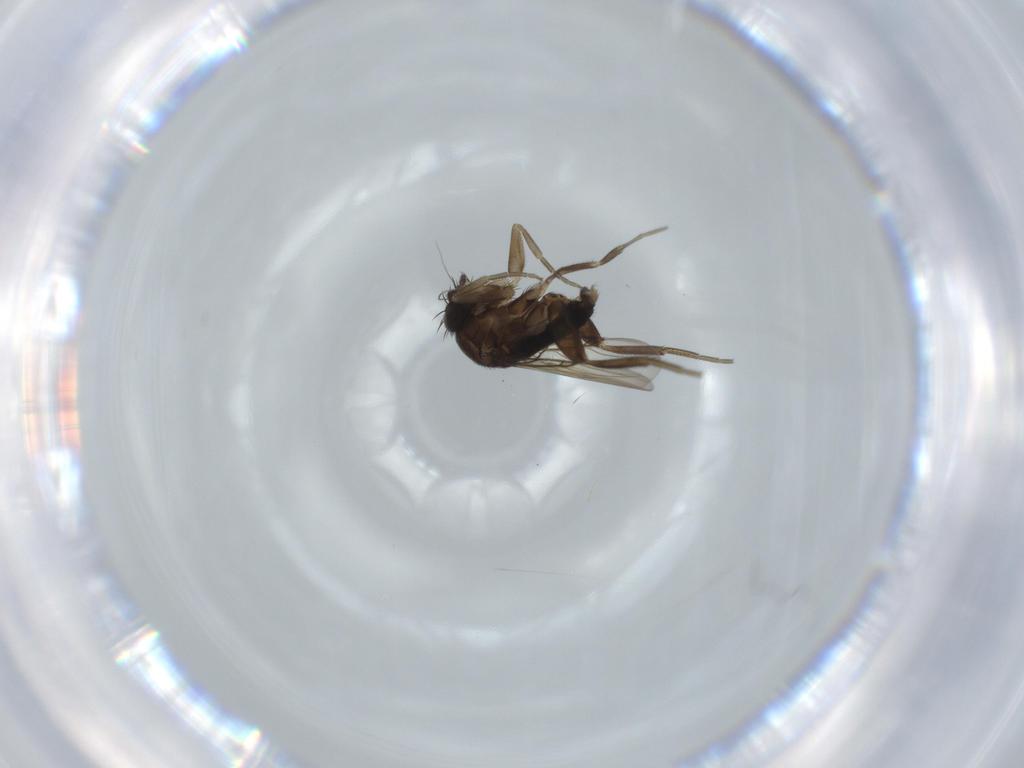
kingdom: Animalia
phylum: Arthropoda
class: Insecta
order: Diptera
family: Phoridae
